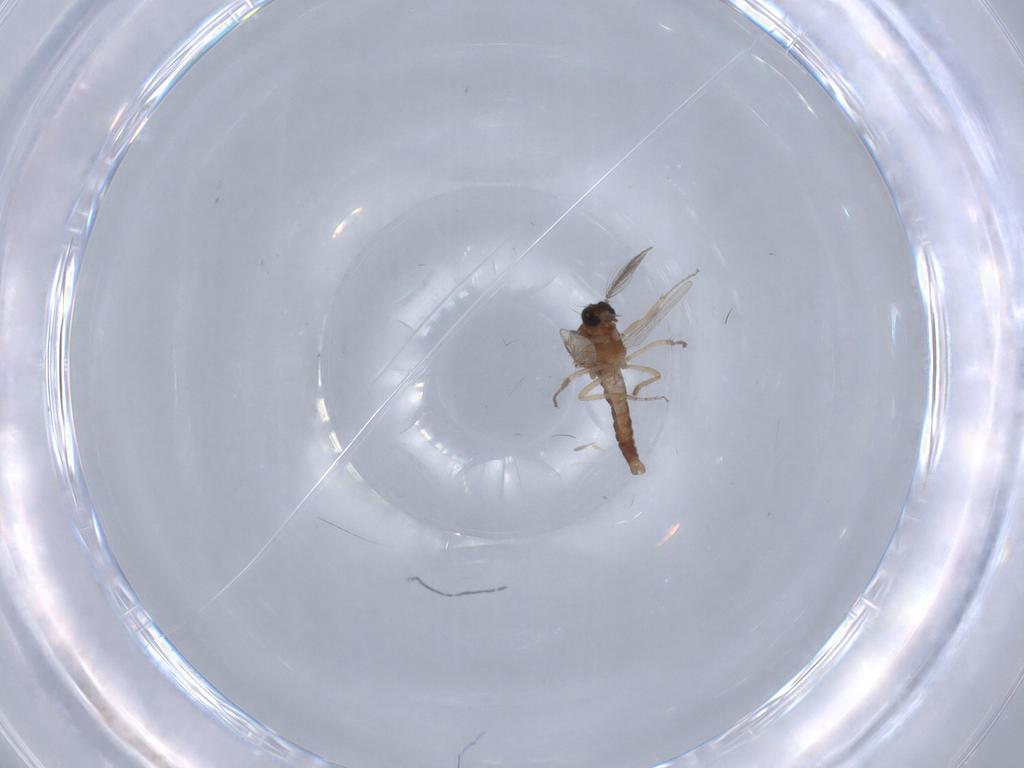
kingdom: Animalia
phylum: Arthropoda
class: Insecta
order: Diptera
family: Ceratopogonidae
